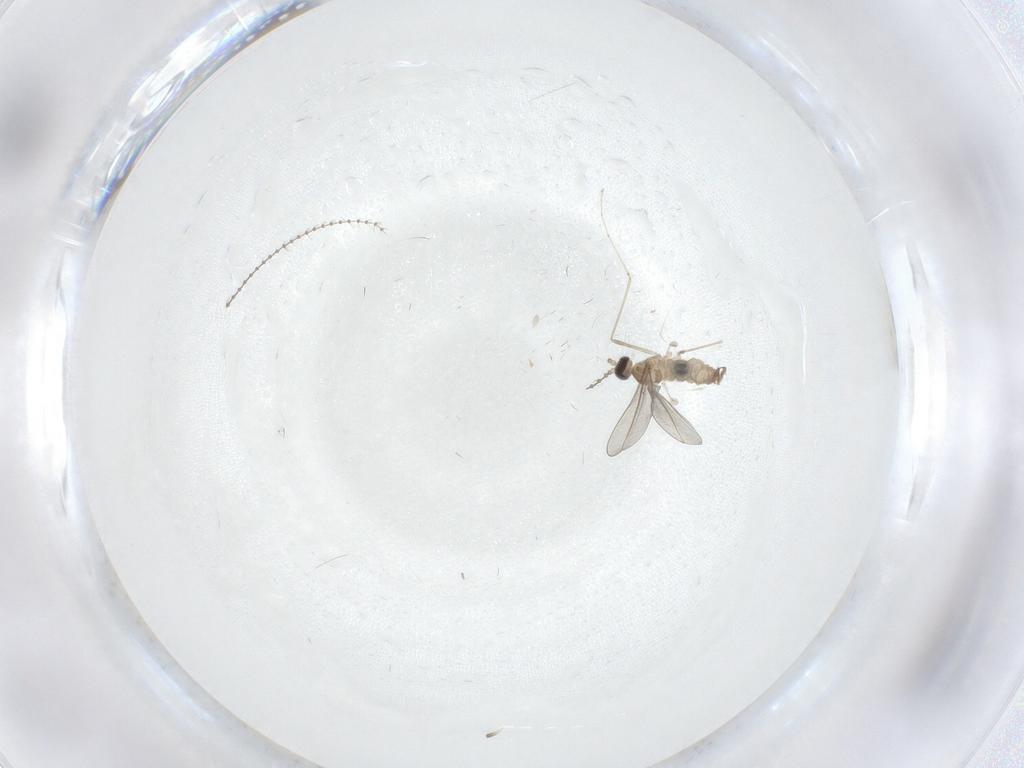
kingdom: Animalia
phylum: Arthropoda
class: Insecta
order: Diptera
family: Cecidomyiidae
